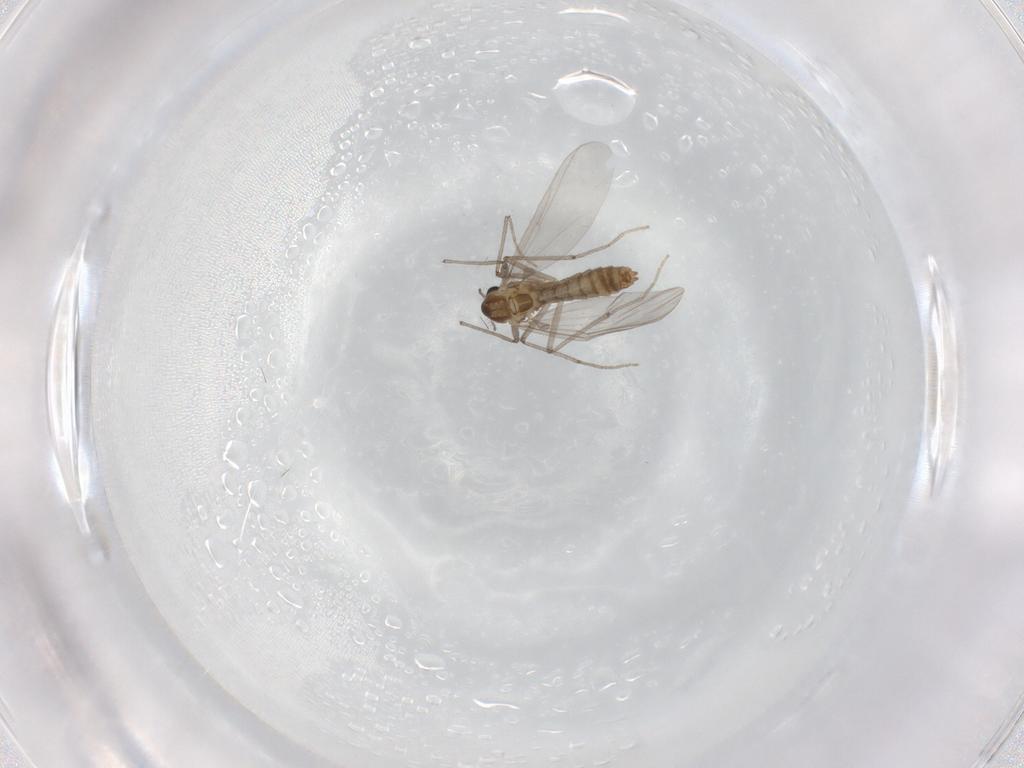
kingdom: Animalia
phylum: Arthropoda
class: Insecta
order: Diptera
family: Chironomidae
